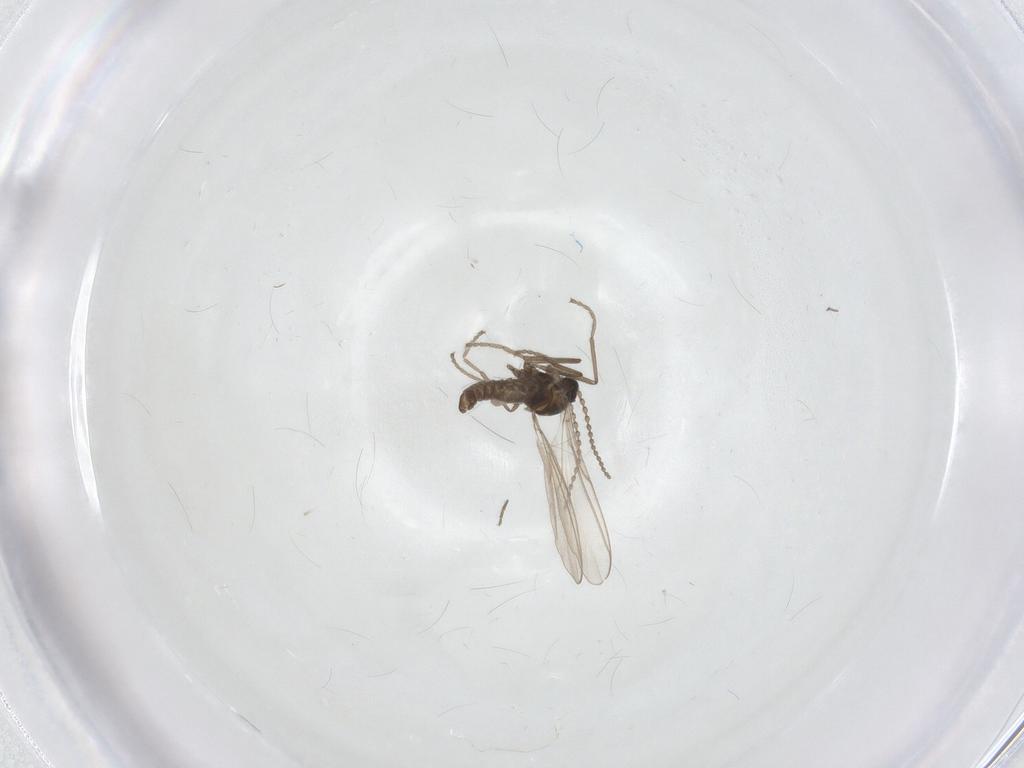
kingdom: Animalia
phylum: Arthropoda
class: Insecta
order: Diptera
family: Cecidomyiidae
